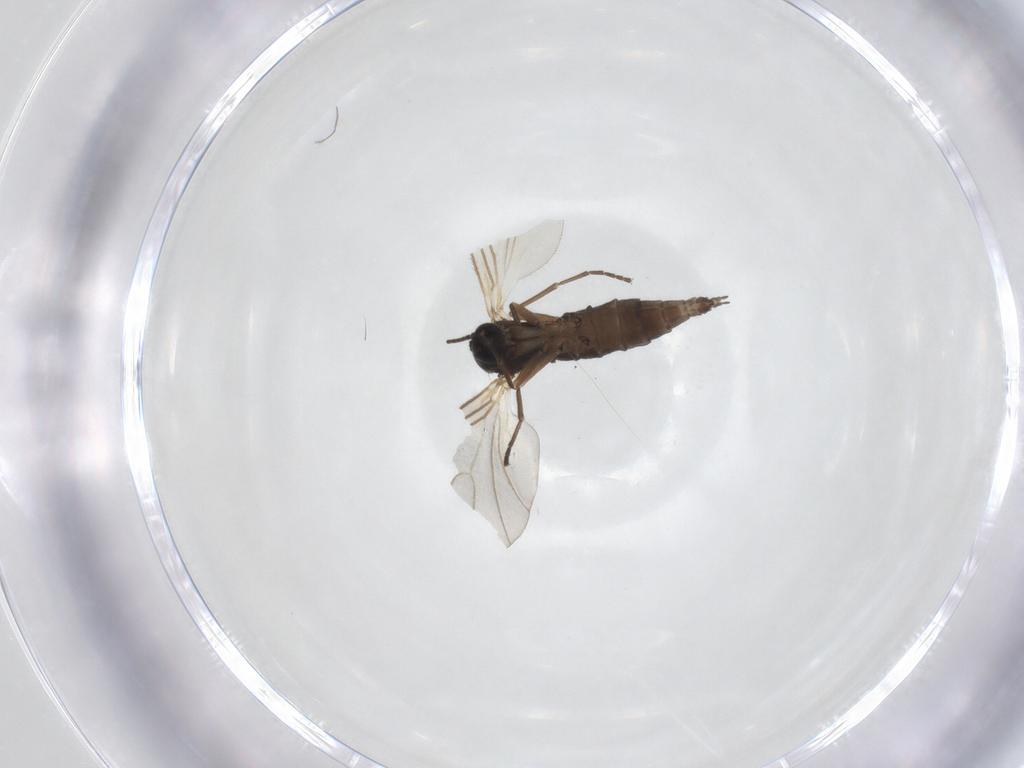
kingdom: Animalia
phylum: Arthropoda
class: Insecta
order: Diptera
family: Sciaridae
